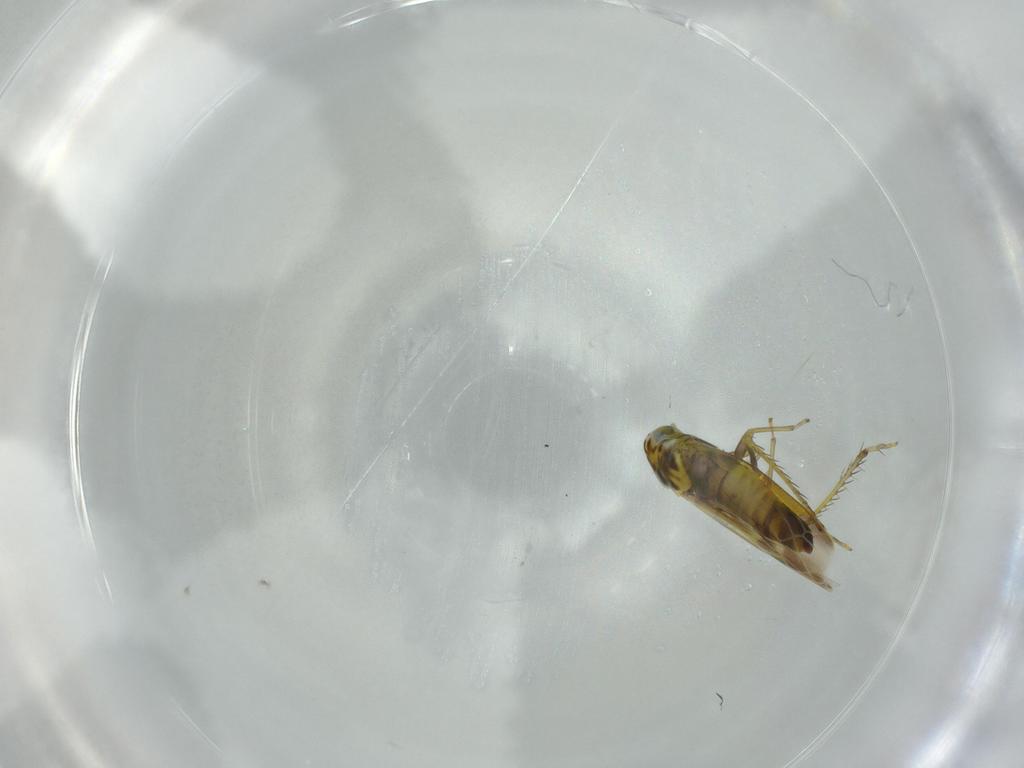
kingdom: Animalia
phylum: Arthropoda
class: Insecta
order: Hemiptera
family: Cicadellidae
